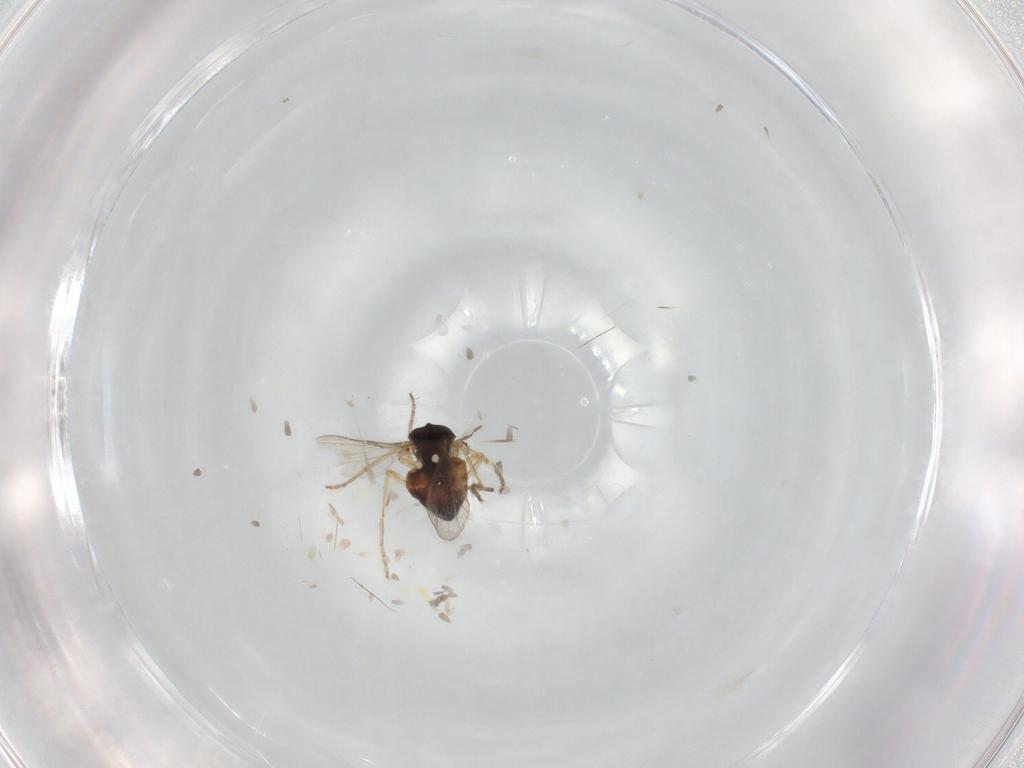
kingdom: Animalia
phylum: Arthropoda
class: Insecta
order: Diptera
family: Ceratopogonidae
